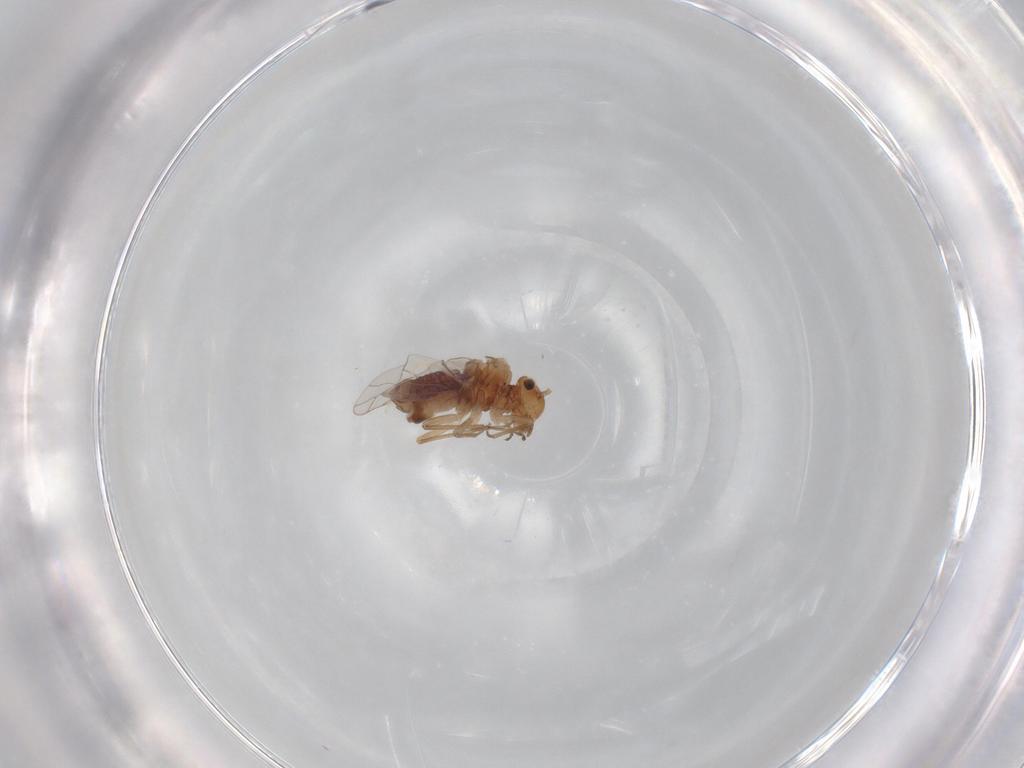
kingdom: Animalia
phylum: Arthropoda
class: Insecta
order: Psocodea
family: Lachesillidae
